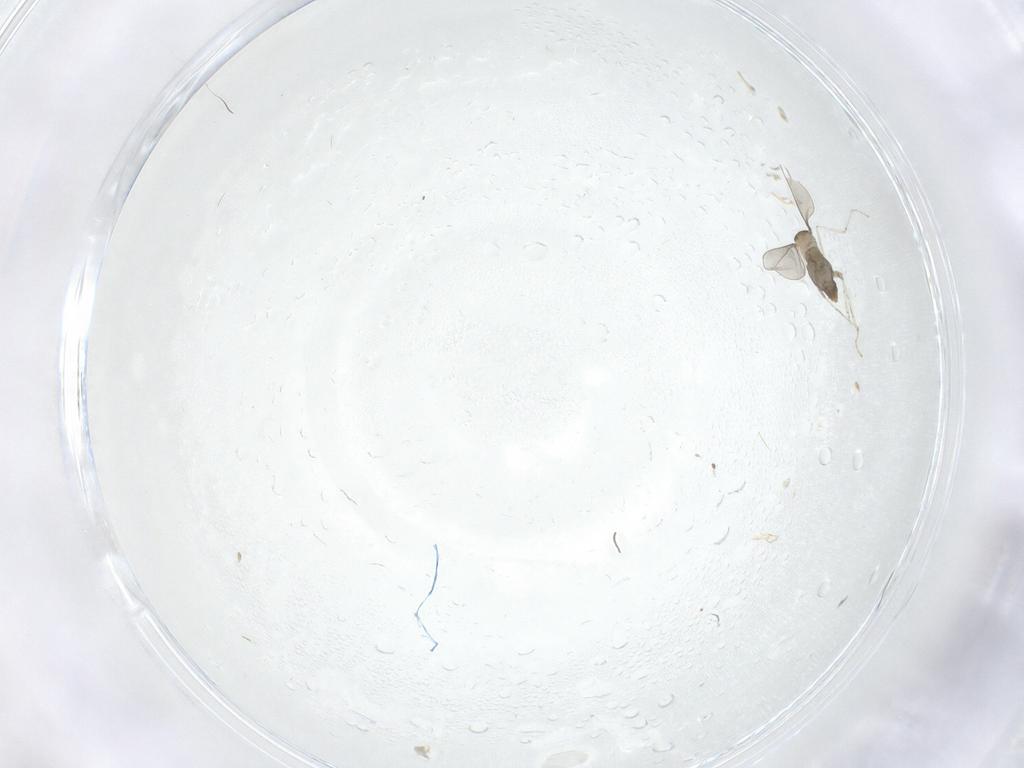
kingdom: Animalia
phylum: Arthropoda
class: Insecta
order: Diptera
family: Cecidomyiidae
